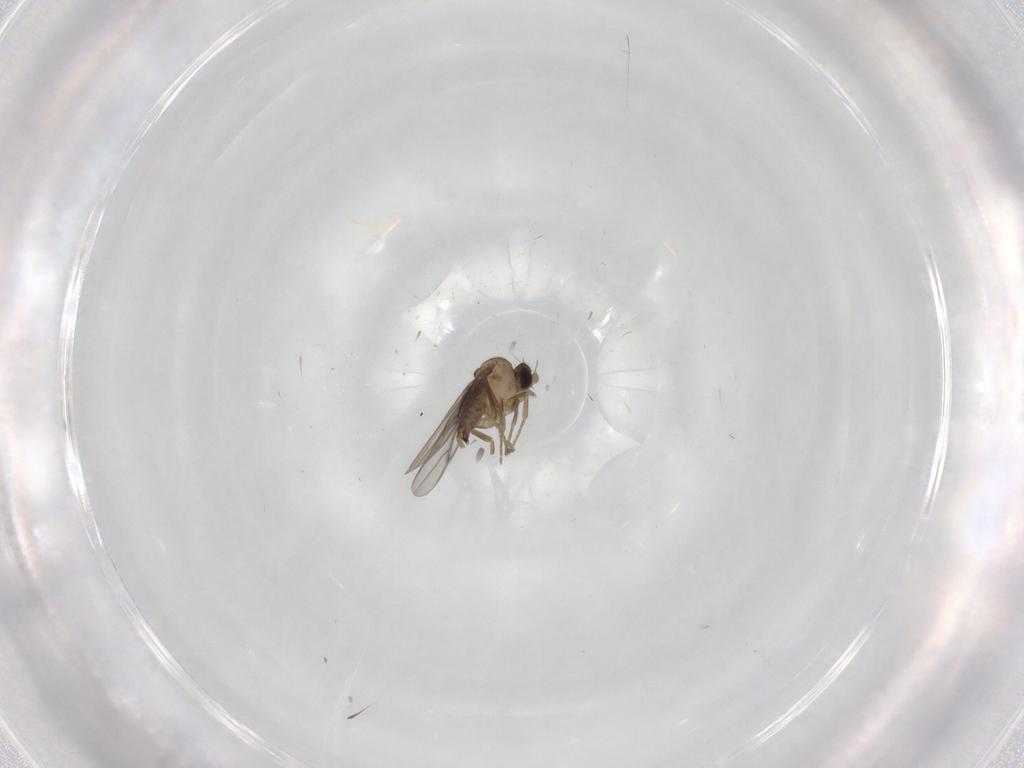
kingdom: Animalia
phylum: Arthropoda
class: Insecta
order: Diptera
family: Mycetophilidae
